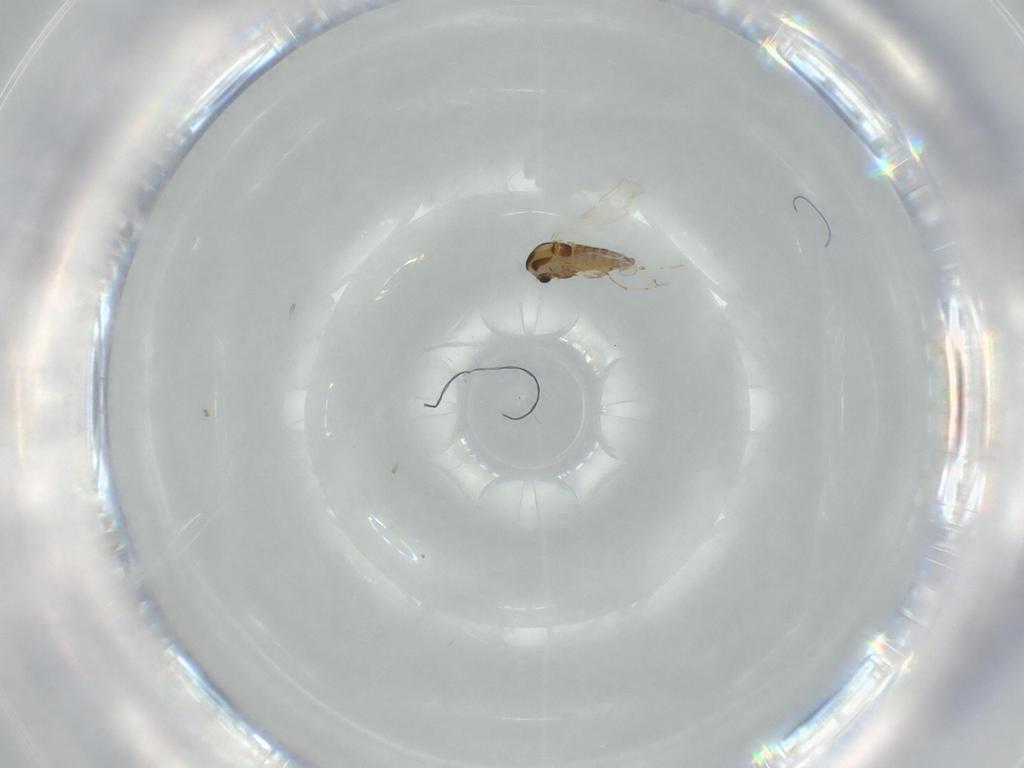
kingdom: Animalia
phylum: Arthropoda
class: Insecta
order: Diptera
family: Tachinidae
